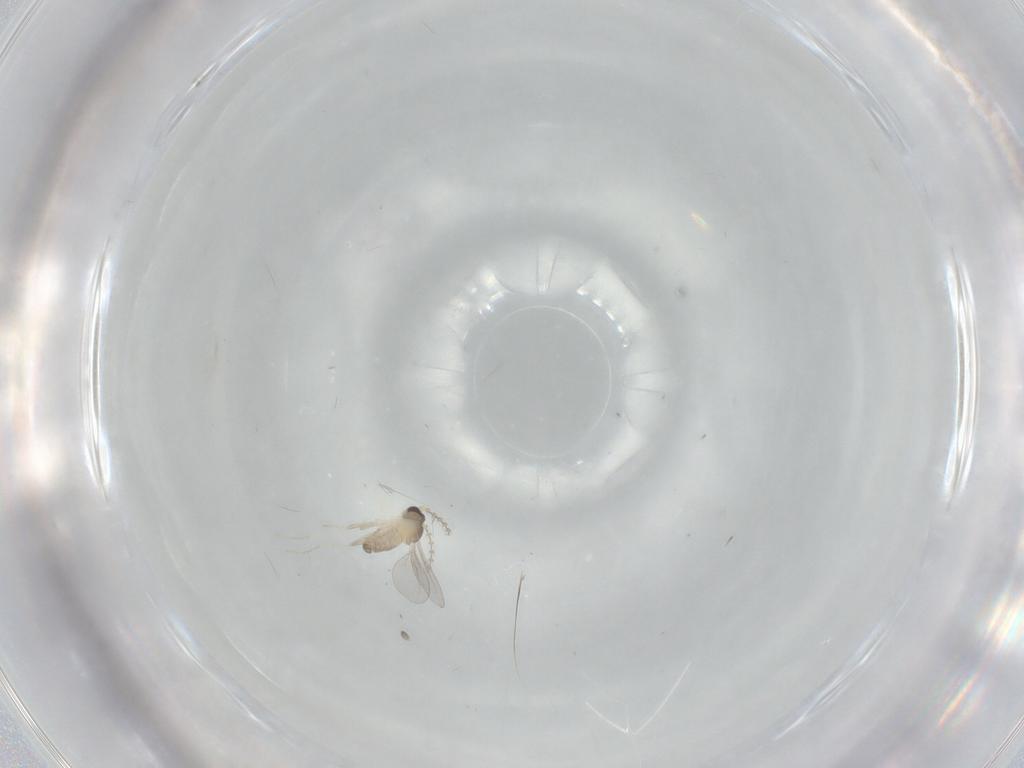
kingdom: Animalia
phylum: Arthropoda
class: Insecta
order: Diptera
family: Cecidomyiidae
